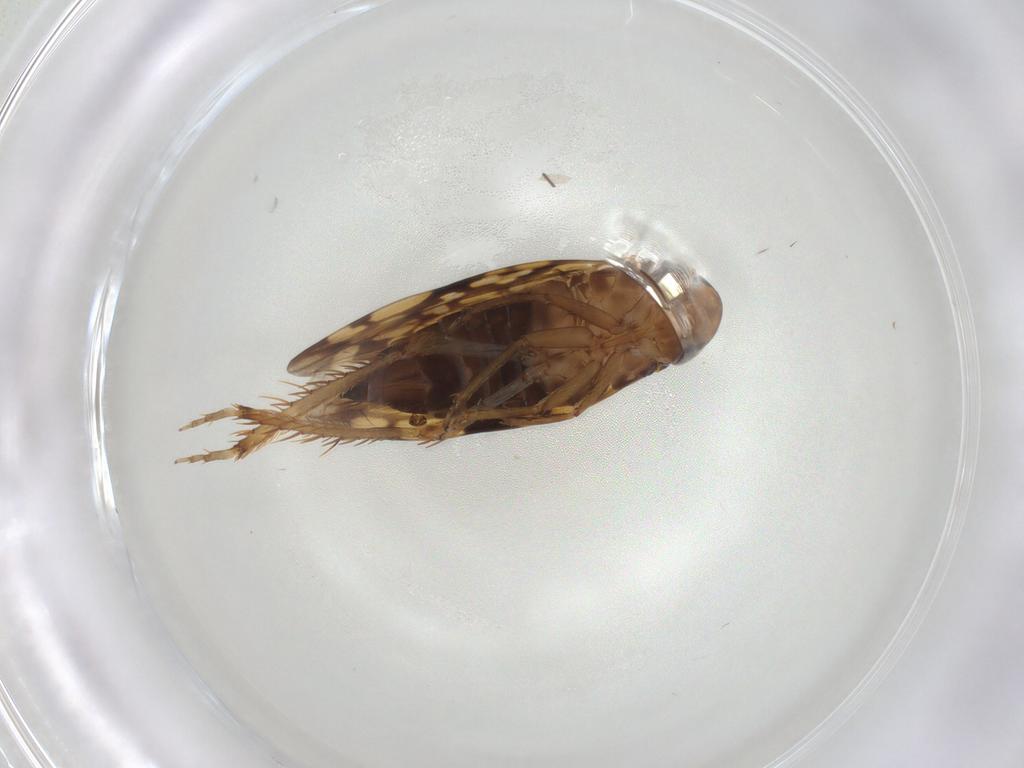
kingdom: Animalia
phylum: Arthropoda
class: Insecta
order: Hemiptera
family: Cicadellidae
